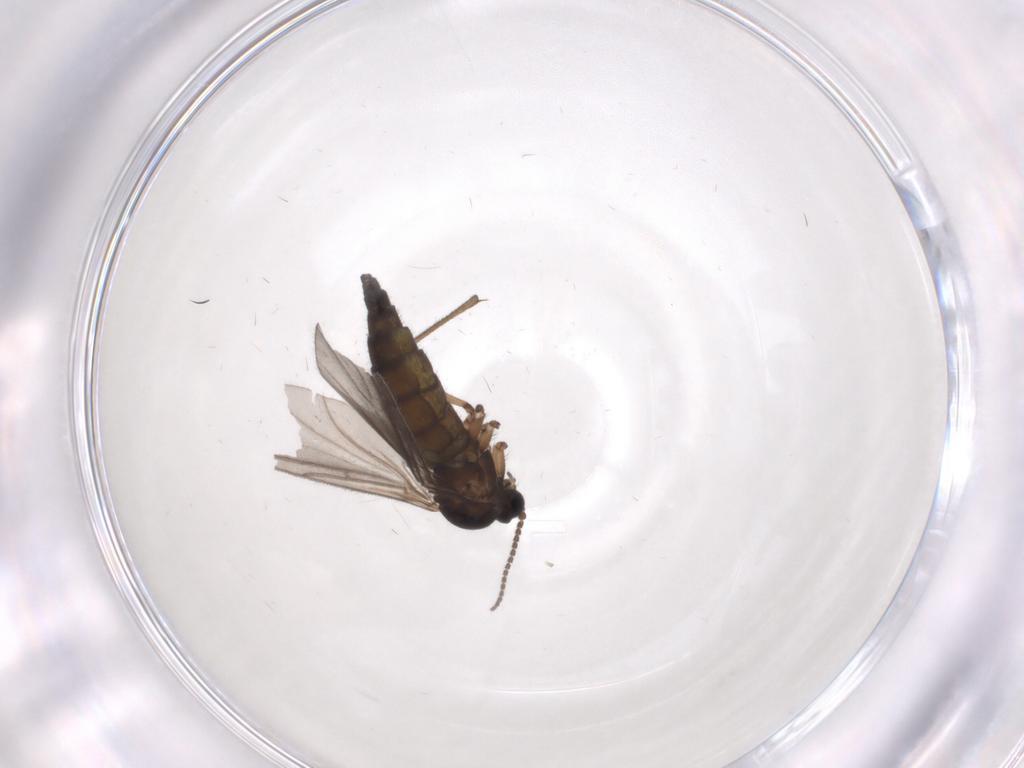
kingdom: Animalia
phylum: Arthropoda
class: Insecta
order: Diptera
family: Sciaridae
